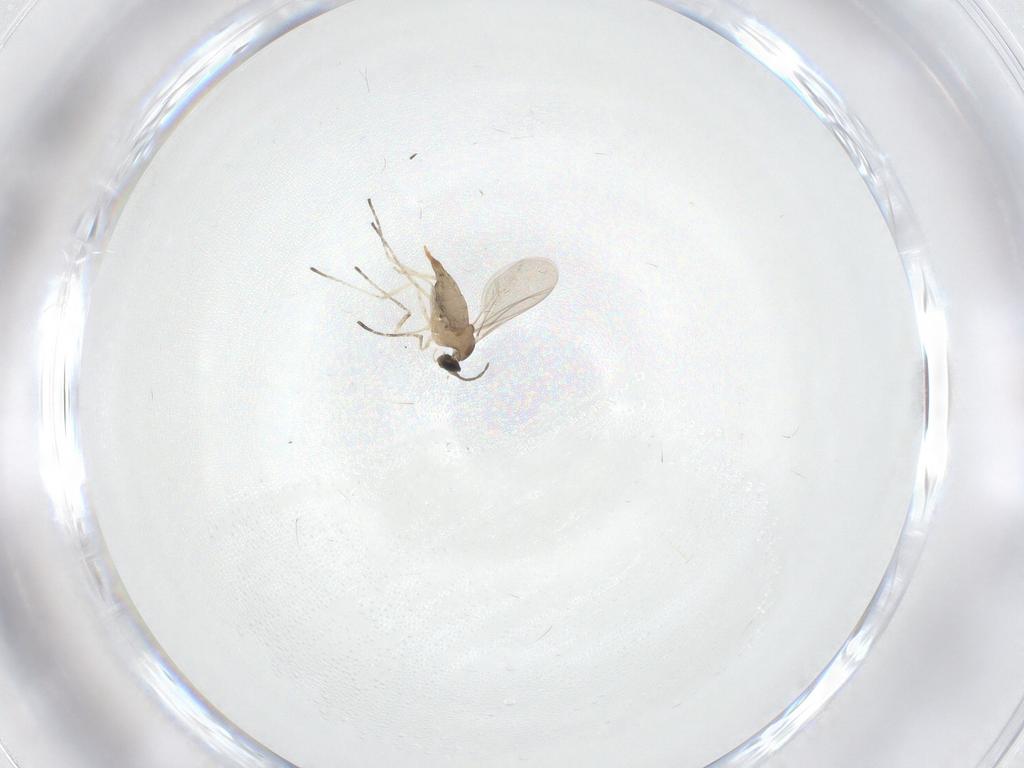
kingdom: Animalia
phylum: Arthropoda
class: Insecta
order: Diptera
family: Cecidomyiidae
